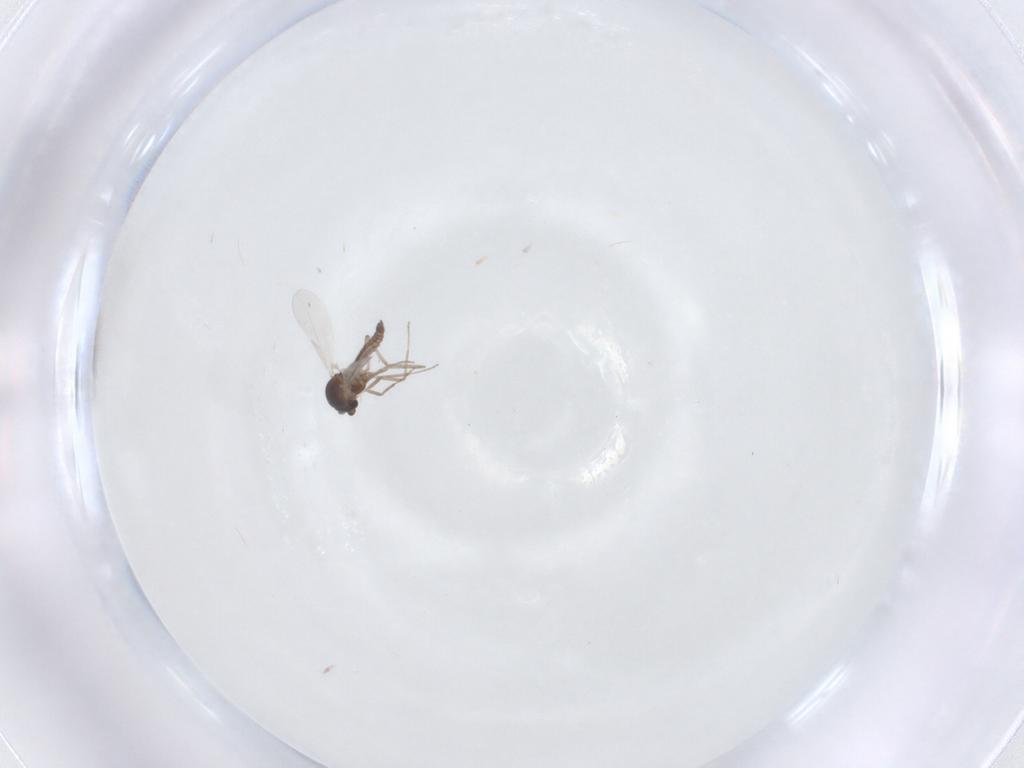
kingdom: Animalia
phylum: Arthropoda
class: Insecta
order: Diptera
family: Ceratopogonidae
